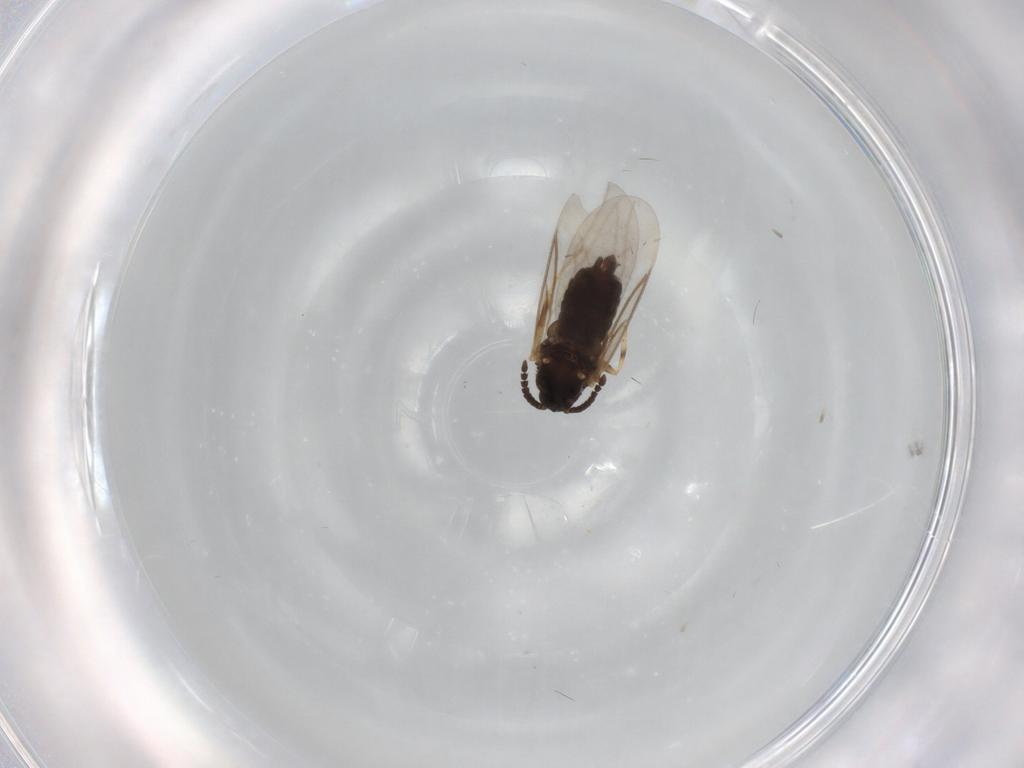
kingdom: Animalia
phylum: Arthropoda
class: Insecta
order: Diptera
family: Scatopsidae
